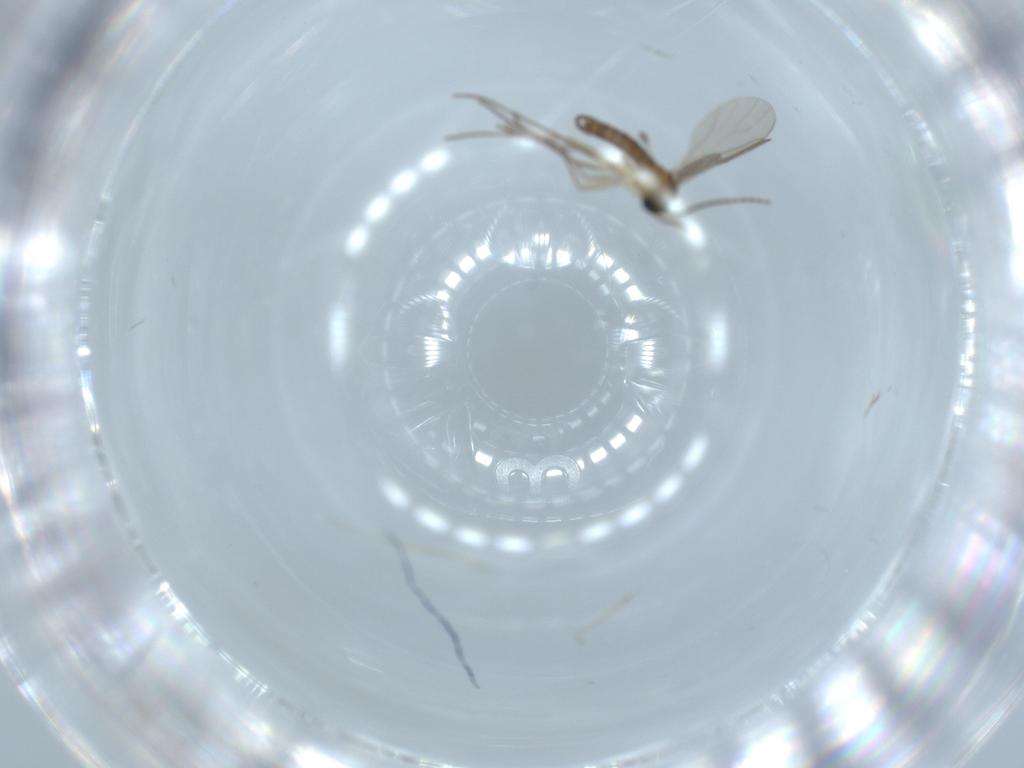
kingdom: Animalia
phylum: Arthropoda
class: Insecta
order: Diptera
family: Sciaridae
